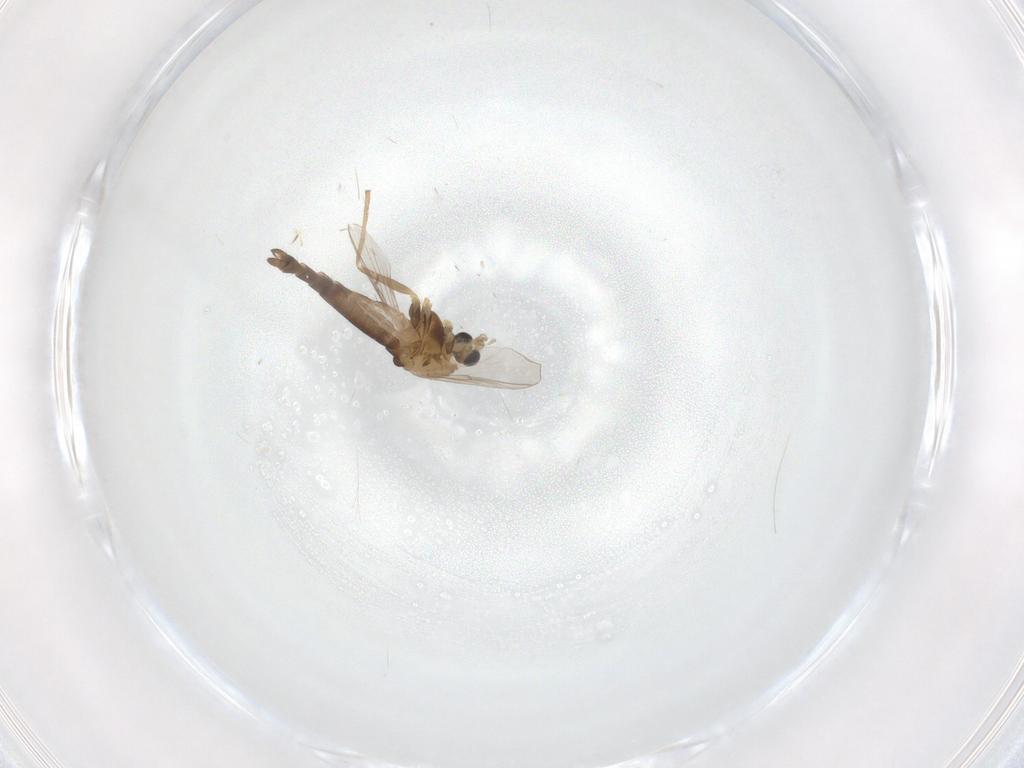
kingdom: Animalia
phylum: Arthropoda
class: Insecta
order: Diptera
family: Chironomidae
